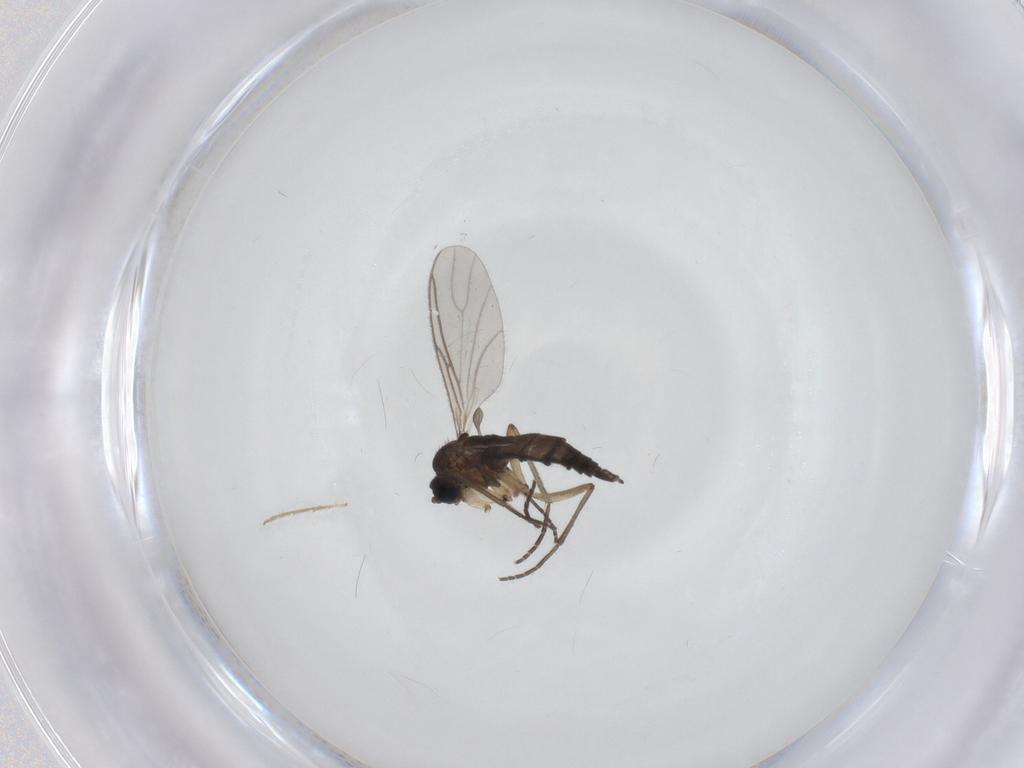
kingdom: Animalia
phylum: Arthropoda
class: Insecta
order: Diptera
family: Sciaridae
